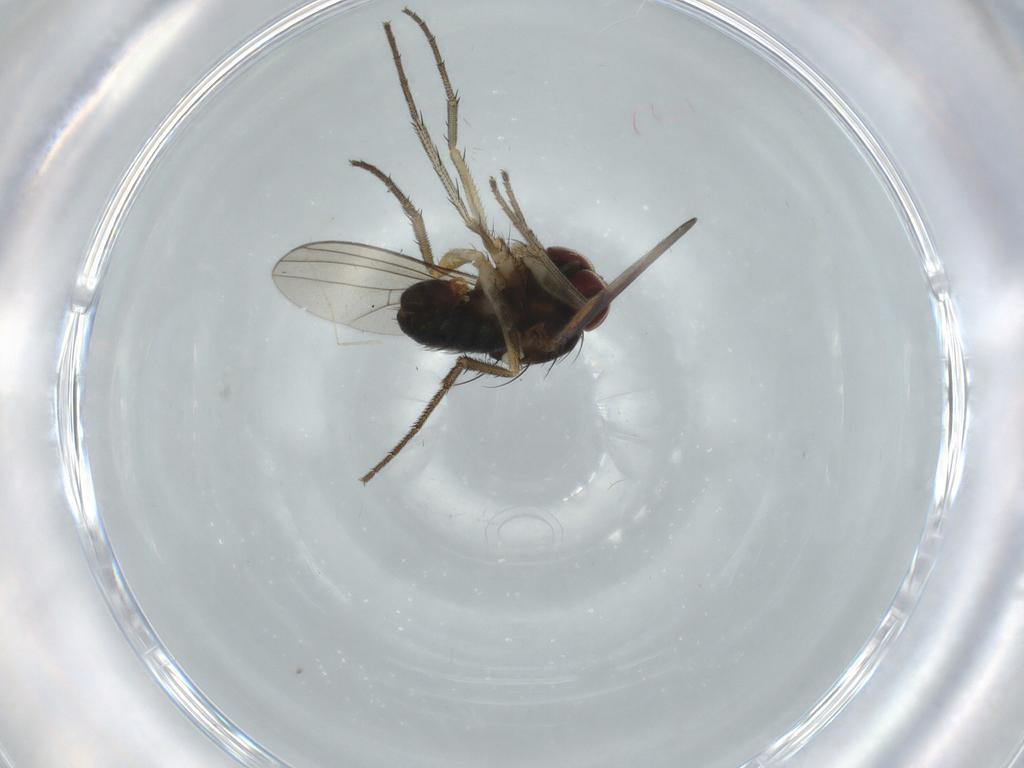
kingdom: Animalia
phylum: Arthropoda
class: Insecta
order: Diptera
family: Dolichopodidae
